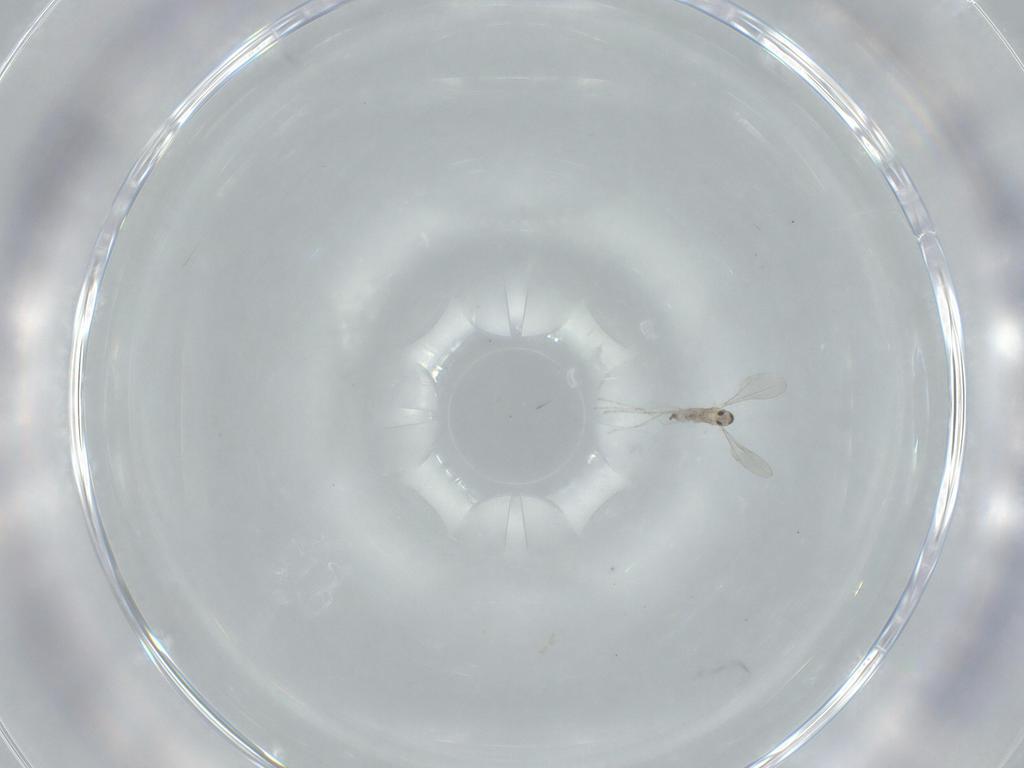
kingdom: Animalia
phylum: Arthropoda
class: Insecta
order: Diptera
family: Cecidomyiidae
